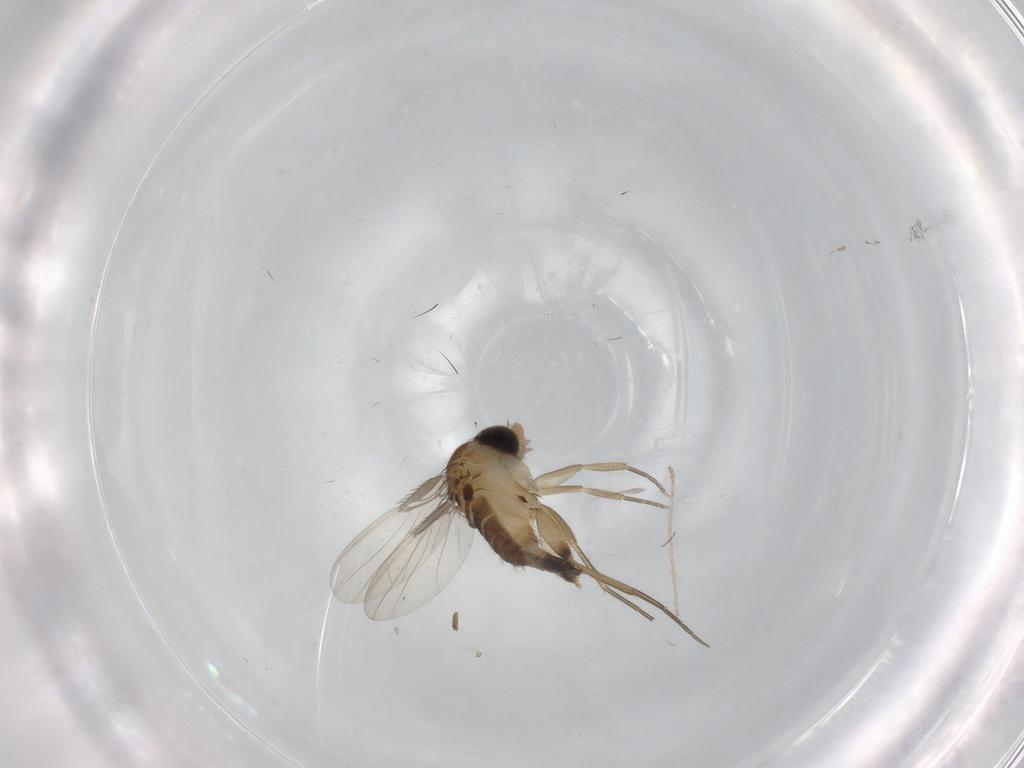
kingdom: Animalia
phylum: Arthropoda
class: Insecta
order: Diptera
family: Phoridae
